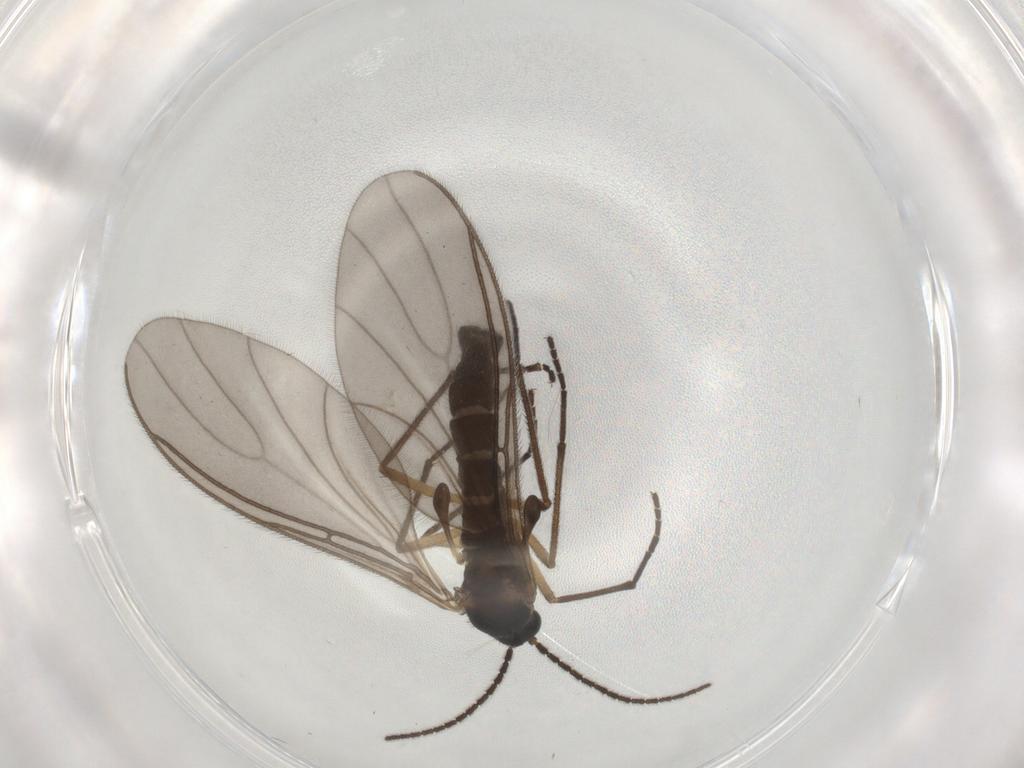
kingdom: Animalia
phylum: Arthropoda
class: Insecta
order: Diptera
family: Sciaridae
